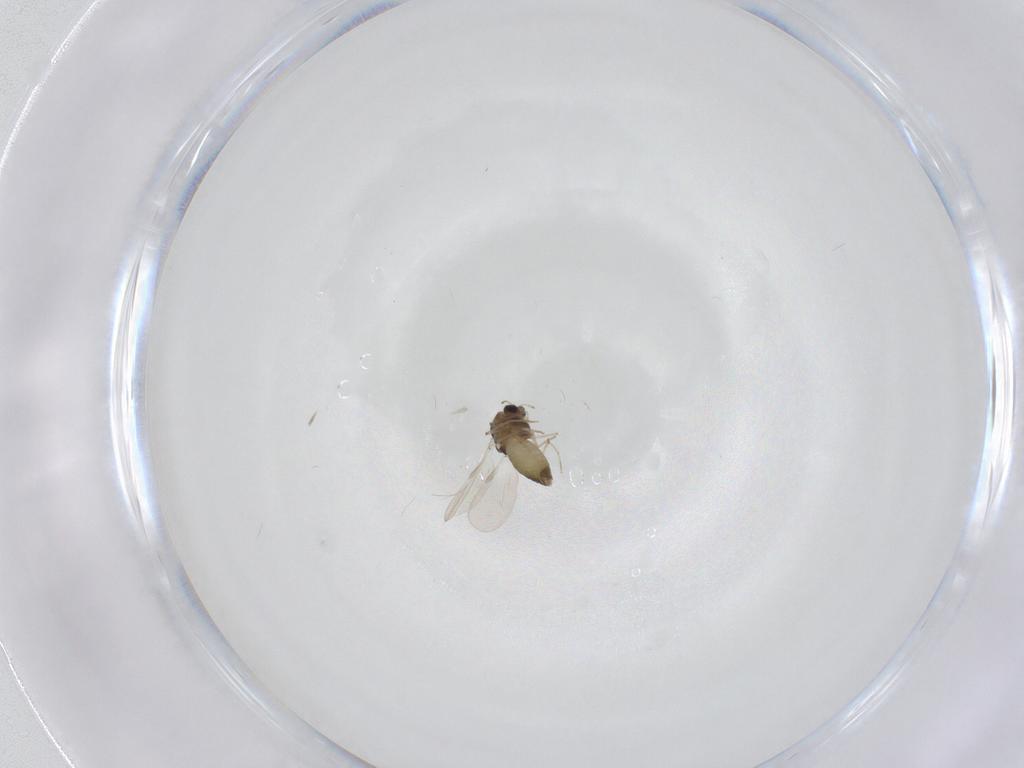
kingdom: Animalia
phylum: Arthropoda
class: Insecta
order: Diptera
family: Chironomidae
